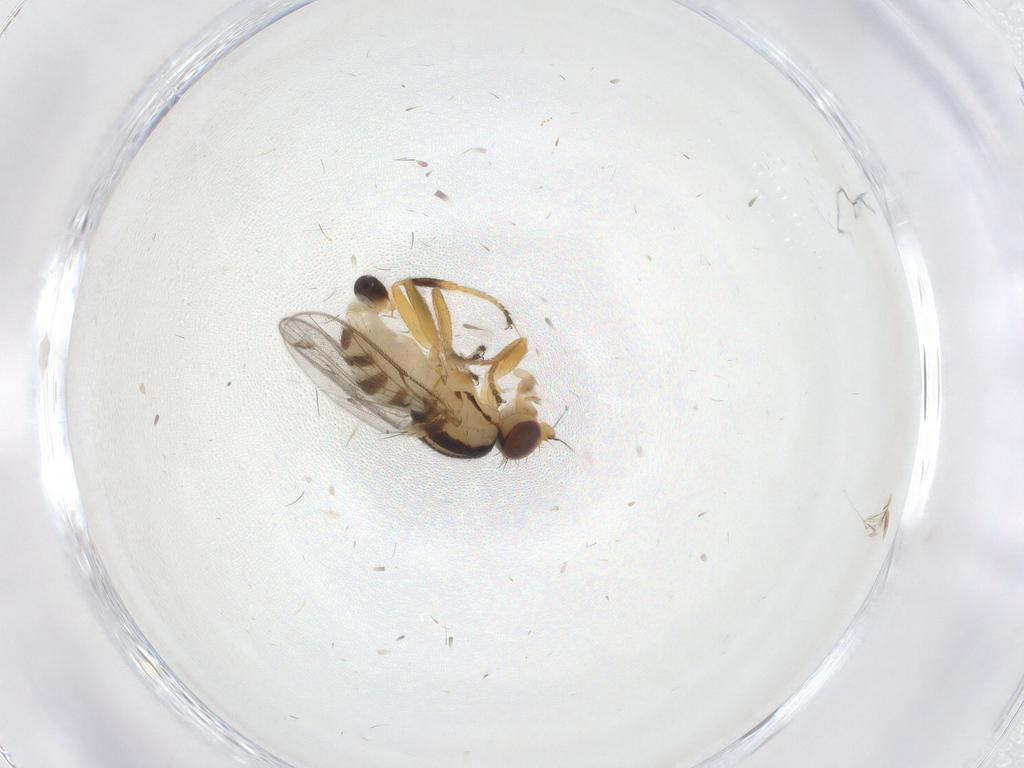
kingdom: Animalia
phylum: Arthropoda
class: Insecta
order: Diptera
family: Chloropidae
